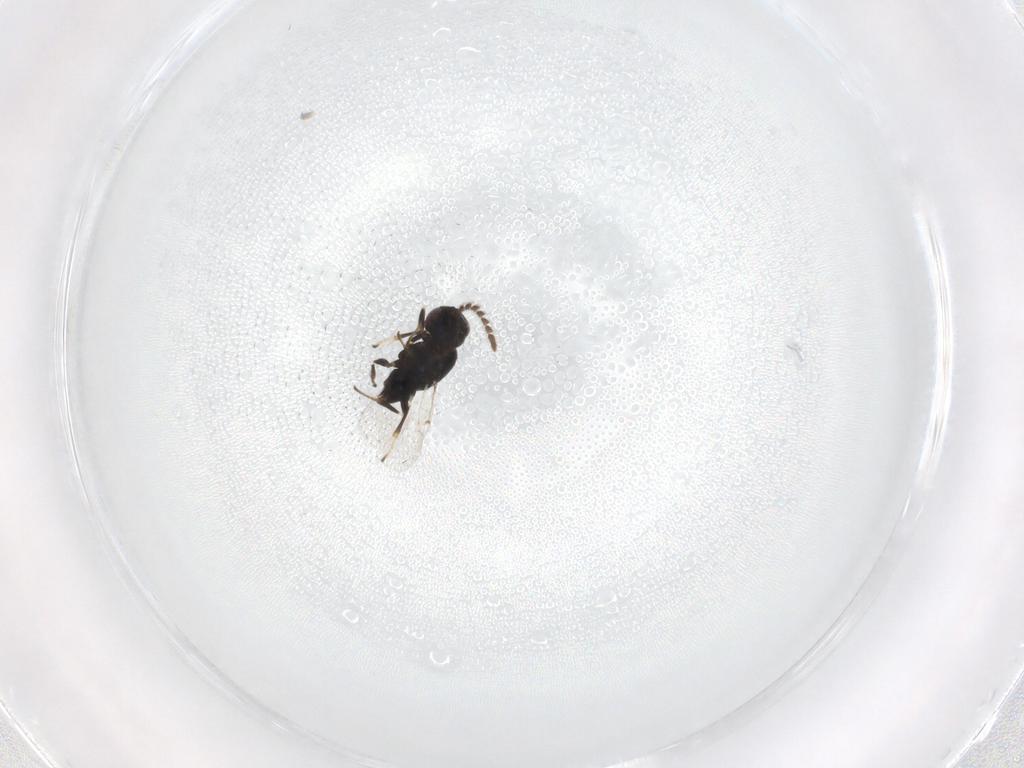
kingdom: Animalia
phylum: Arthropoda
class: Insecta
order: Hymenoptera
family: Encyrtidae
